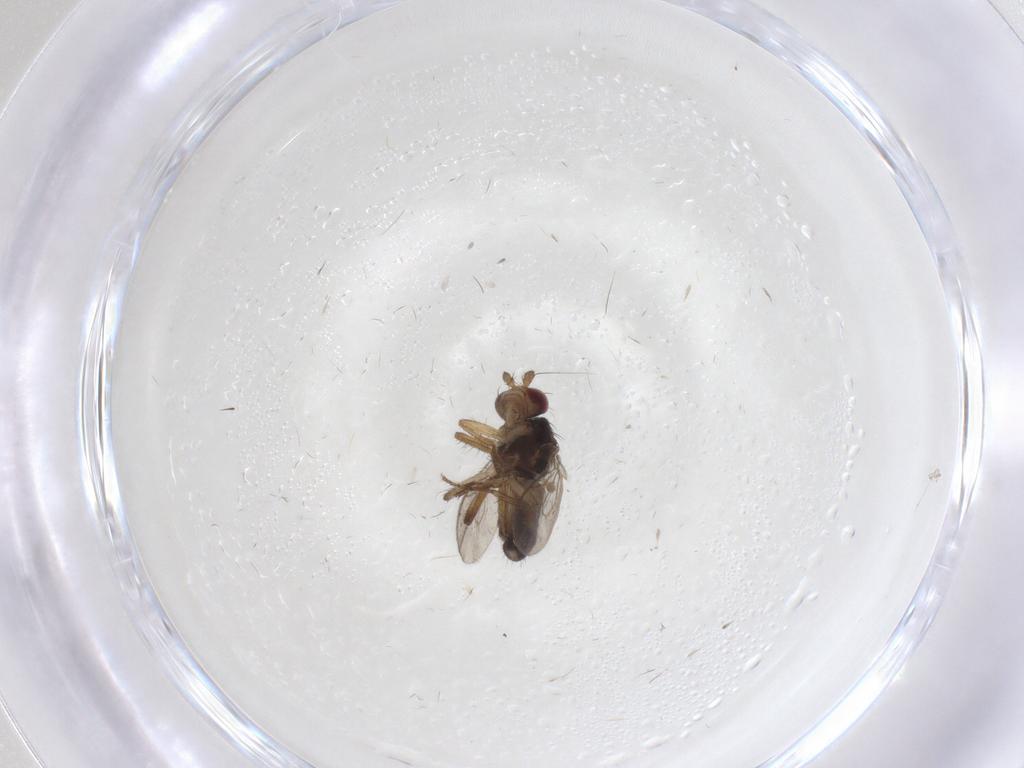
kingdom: Animalia
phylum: Arthropoda
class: Insecta
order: Diptera
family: Sphaeroceridae
